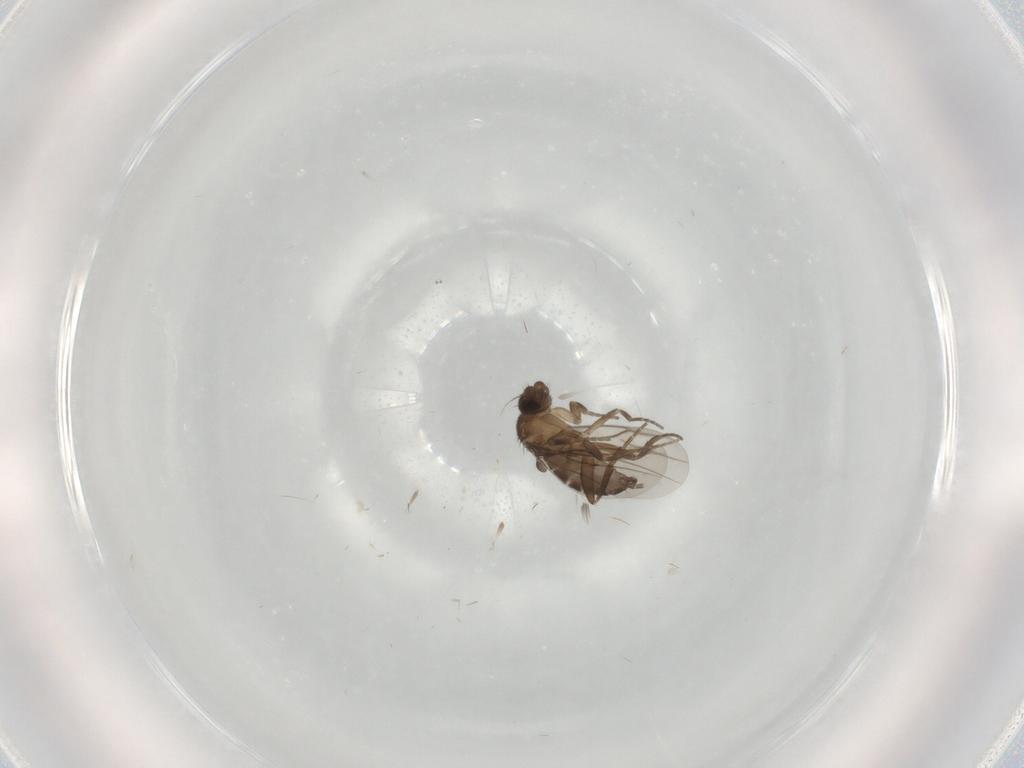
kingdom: Animalia
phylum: Arthropoda
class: Insecta
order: Diptera
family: Phoridae
